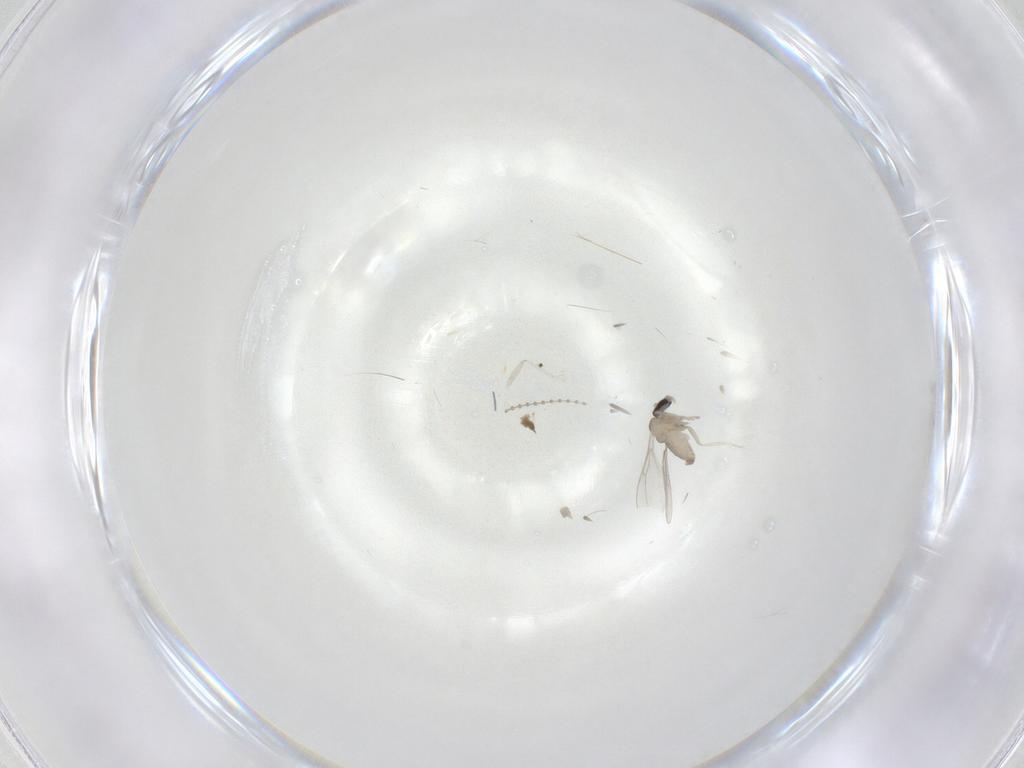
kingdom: Animalia
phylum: Arthropoda
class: Insecta
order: Diptera
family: Cecidomyiidae
